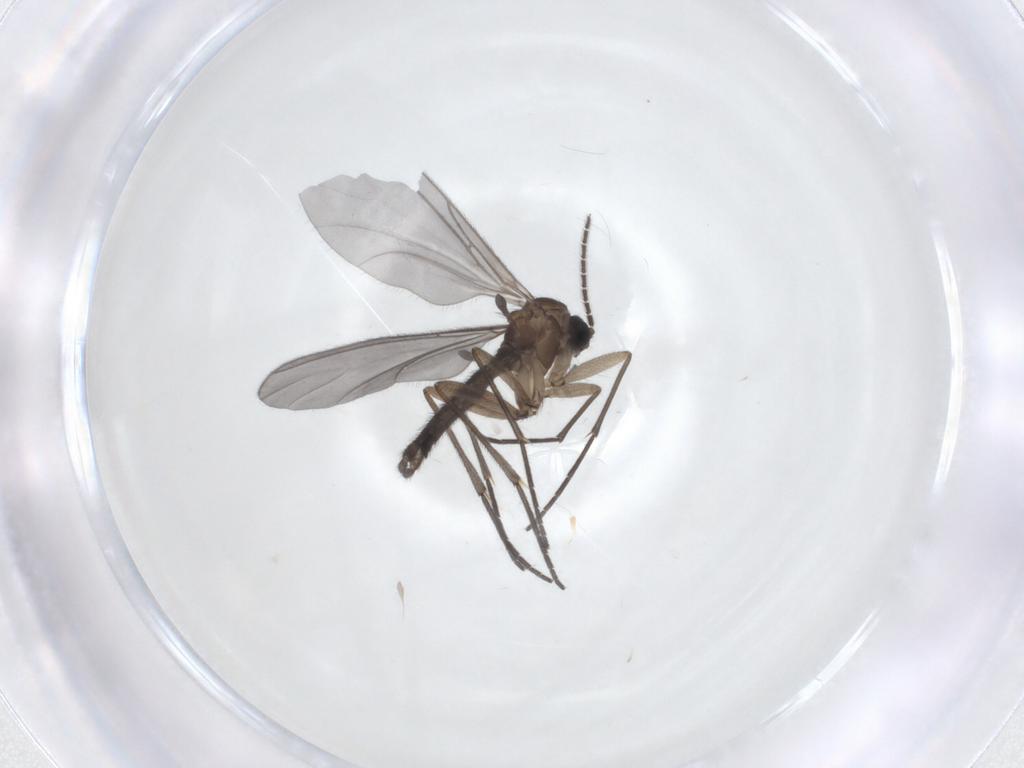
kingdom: Animalia
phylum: Arthropoda
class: Insecta
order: Diptera
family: Sciaridae
